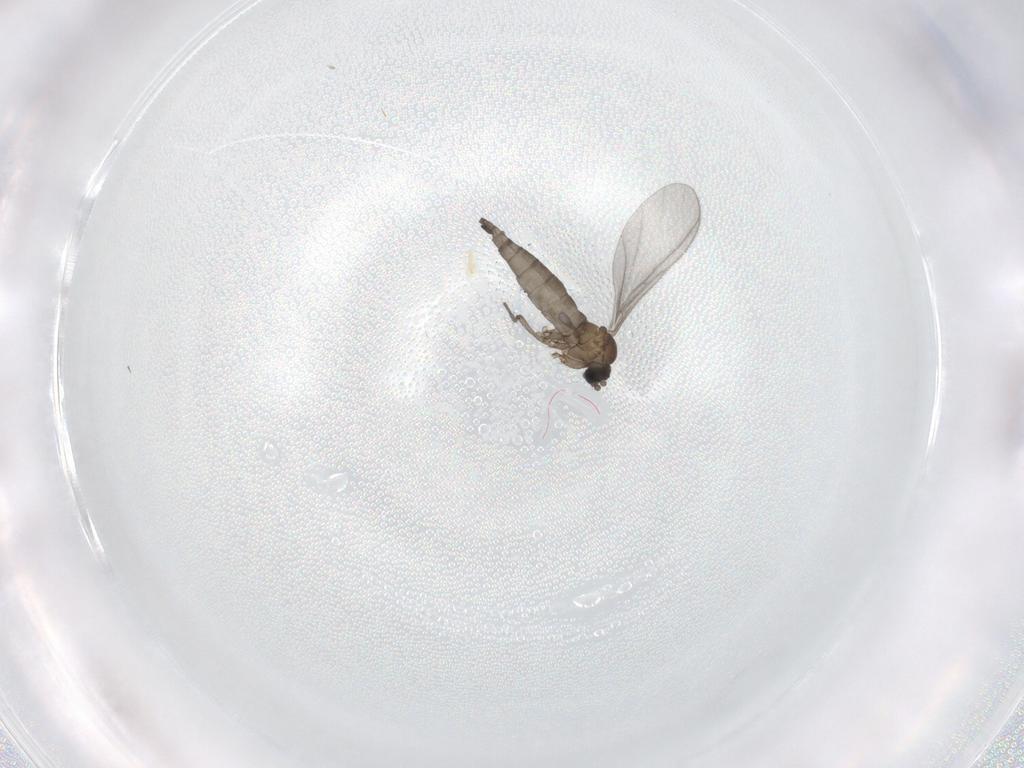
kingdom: Animalia
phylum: Arthropoda
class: Insecta
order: Diptera
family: Sciaridae
